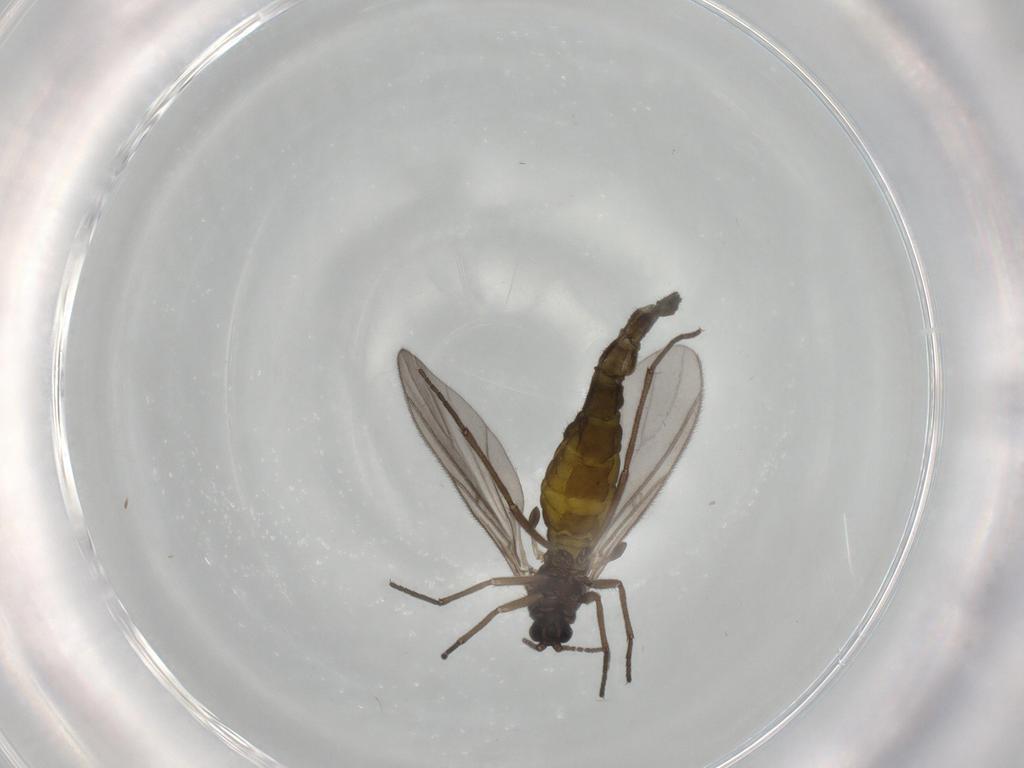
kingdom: Animalia
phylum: Arthropoda
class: Insecta
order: Diptera
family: Sciaridae
